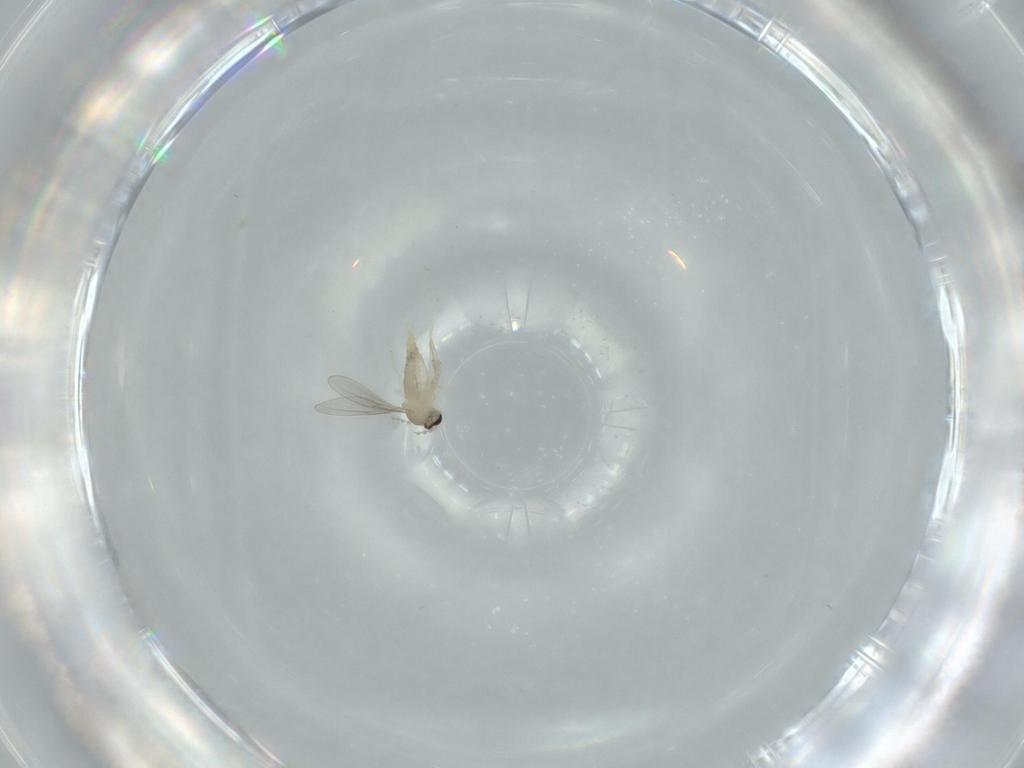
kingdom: Animalia
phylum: Arthropoda
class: Insecta
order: Diptera
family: Cecidomyiidae
